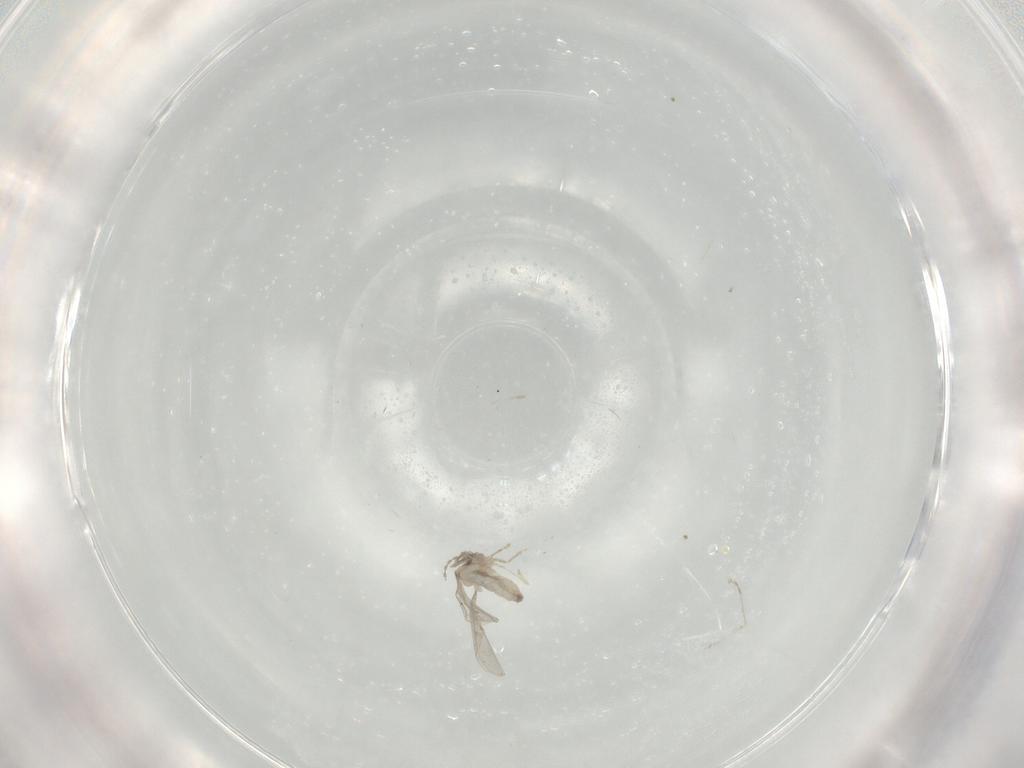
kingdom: Animalia
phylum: Arthropoda
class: Insecta
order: Diptera
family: Cecidomyiidae
